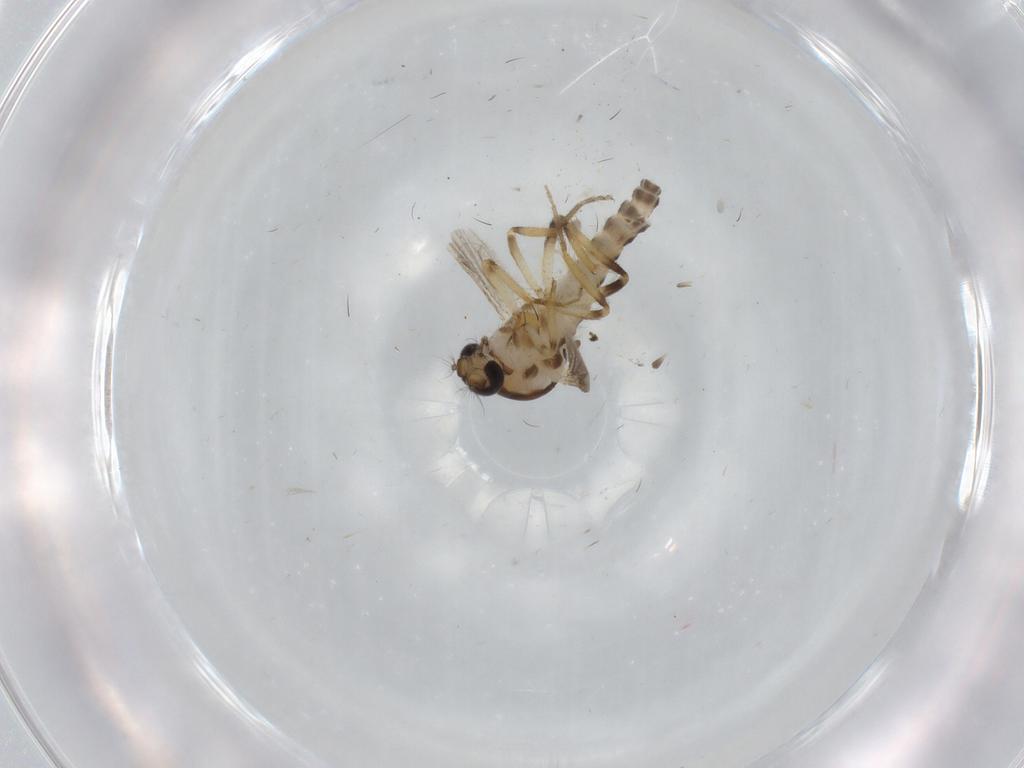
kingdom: Animalia
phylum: Arthropoda
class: Insecta
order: Diptera
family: Ceratopogonidae
